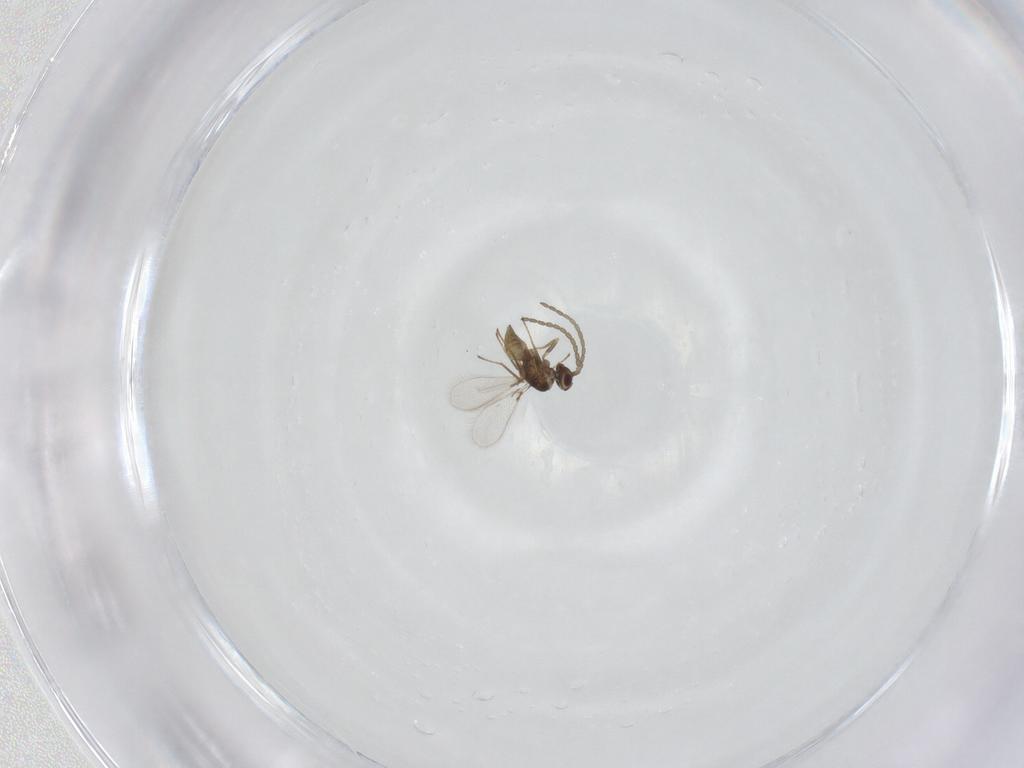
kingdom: Animalia
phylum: Arthropoda
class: Insecta
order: Hymenoptera
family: Mymaridae
